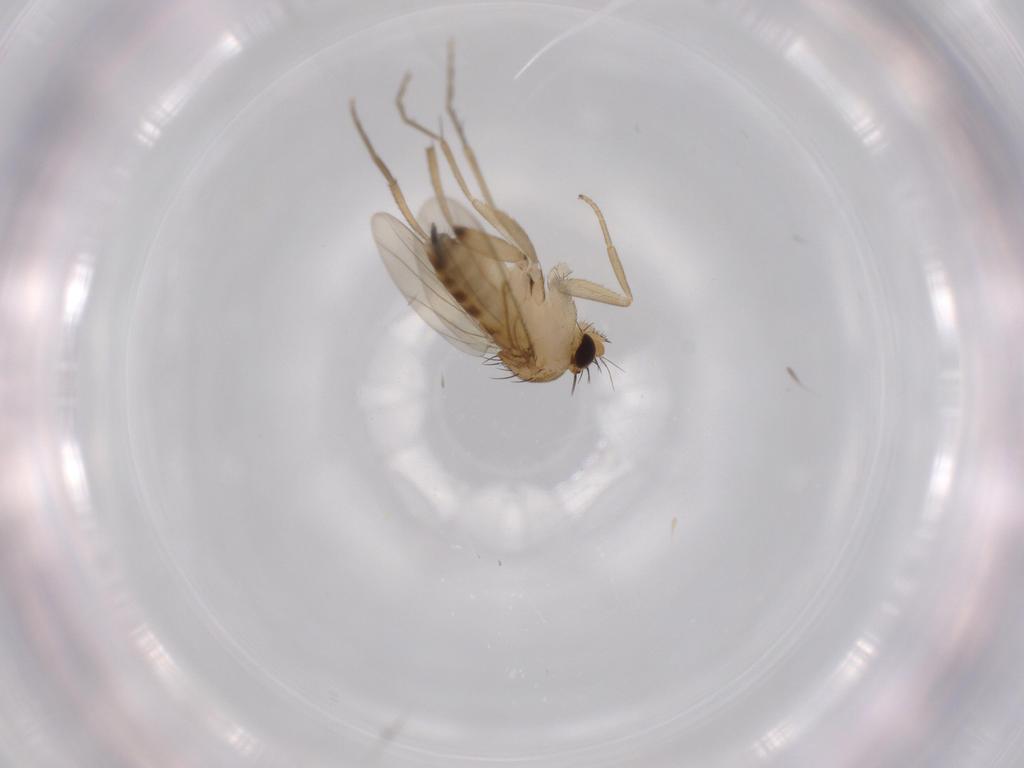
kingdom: Animalia
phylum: Arthropoda
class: Insecta
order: Diptera
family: Phoridae
